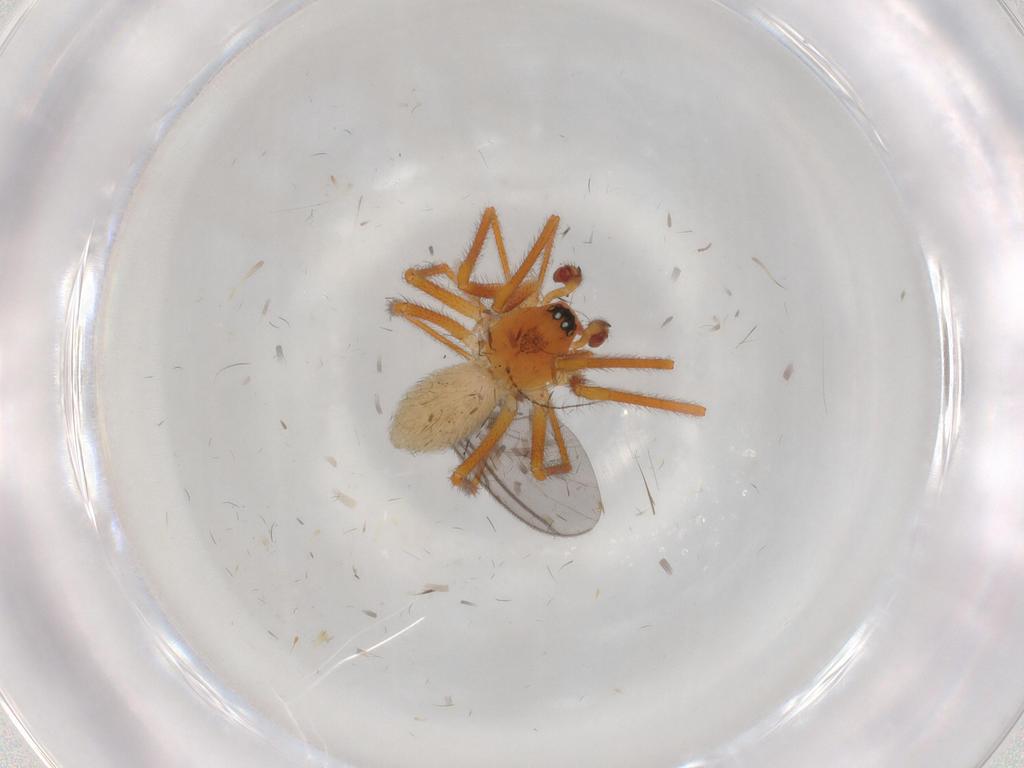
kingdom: Animalia
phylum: Arthropoda
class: Arachnida
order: Araneae
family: Linyphiidae
